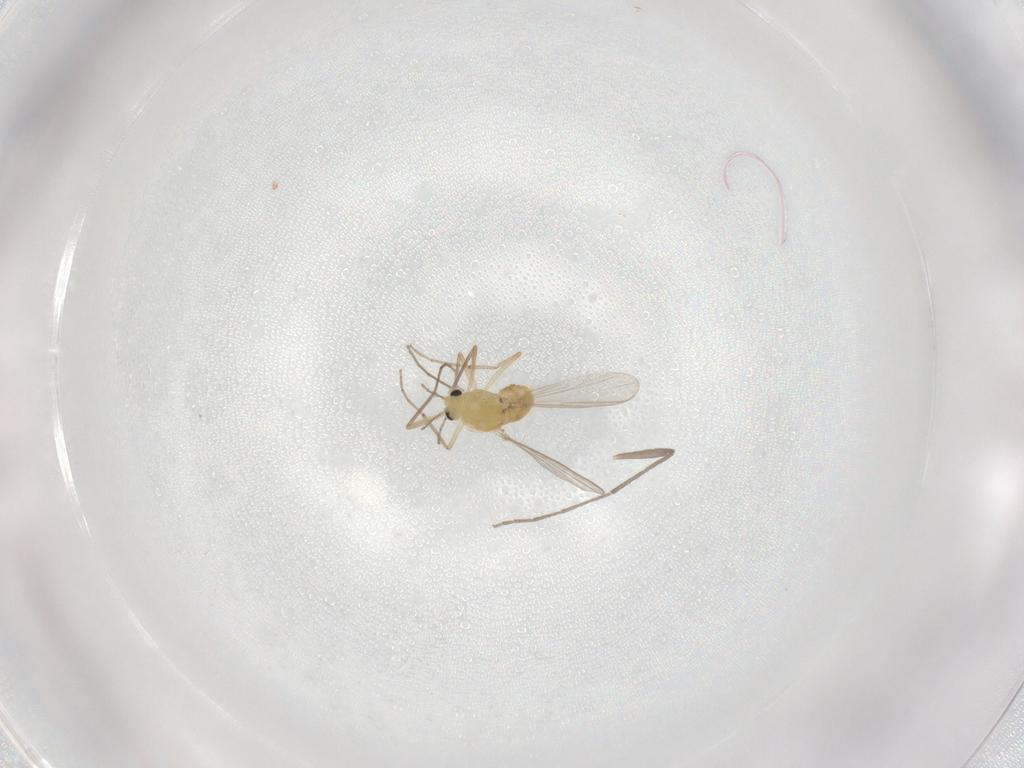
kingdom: Animalia
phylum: Arthropoda
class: Insecta
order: Diptera
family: Chironomidae
